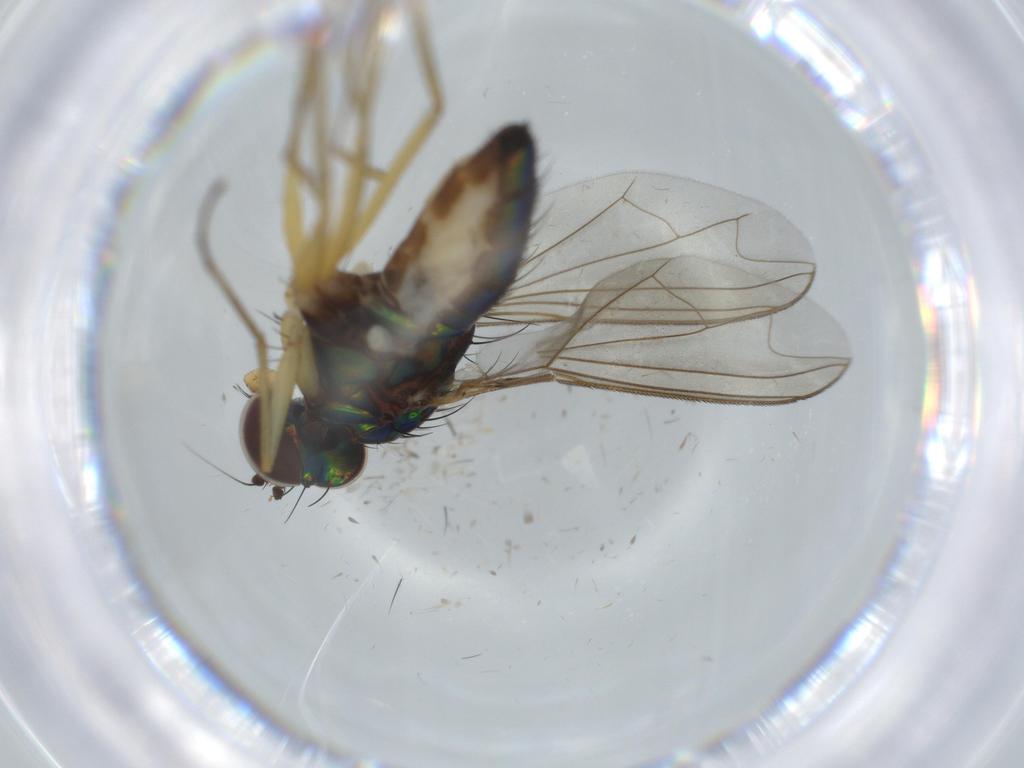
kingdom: Animalia
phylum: Arthropoda
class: Insecta
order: Diptera
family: Dolichopodidae
